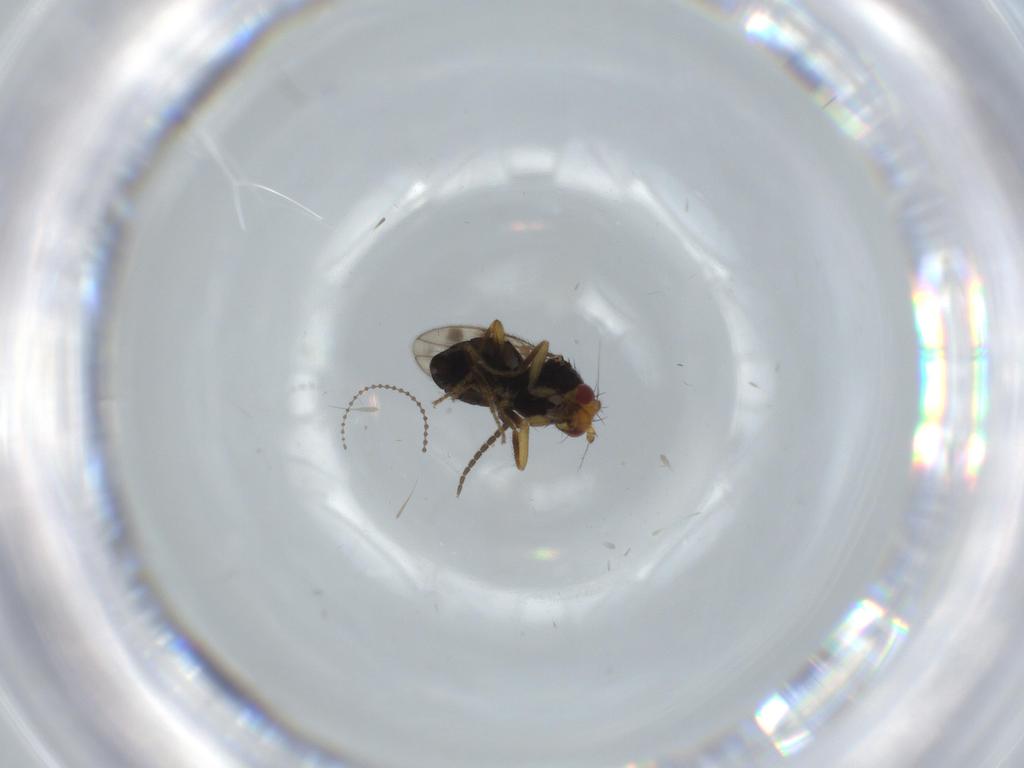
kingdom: Animalia
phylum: Arthropoda
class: Insecta
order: Diptera
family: Sphaeroceridae
